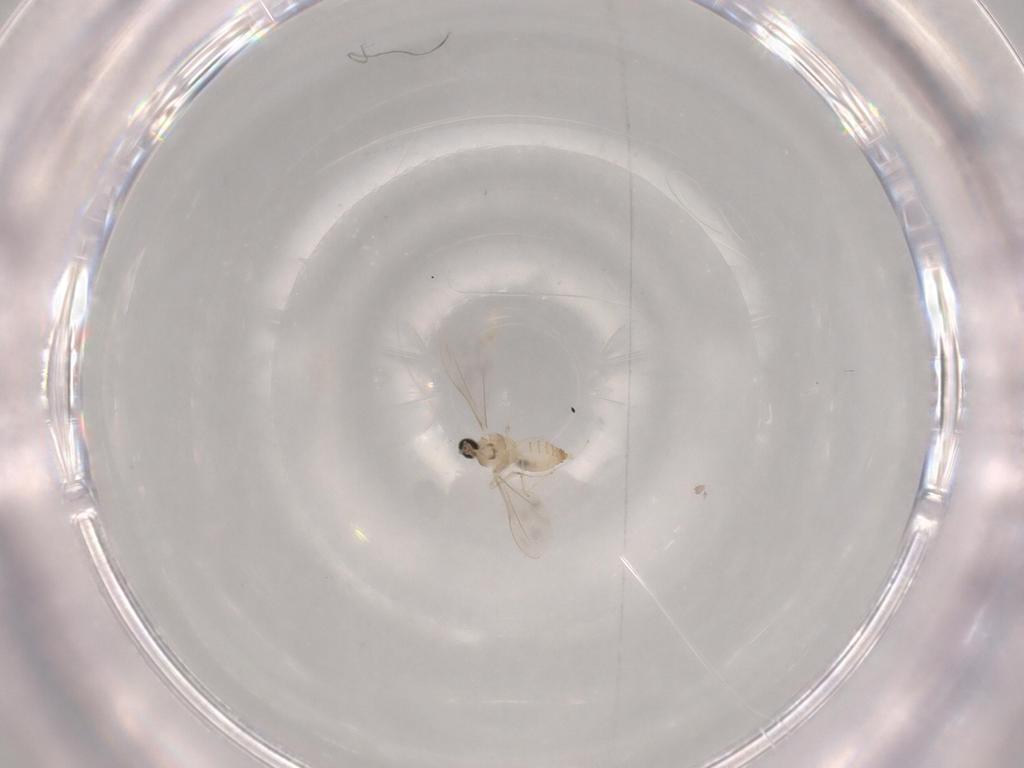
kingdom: Animalia
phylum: Arthropoda
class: Insecta
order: Diptera
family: Cecidomyiidae
